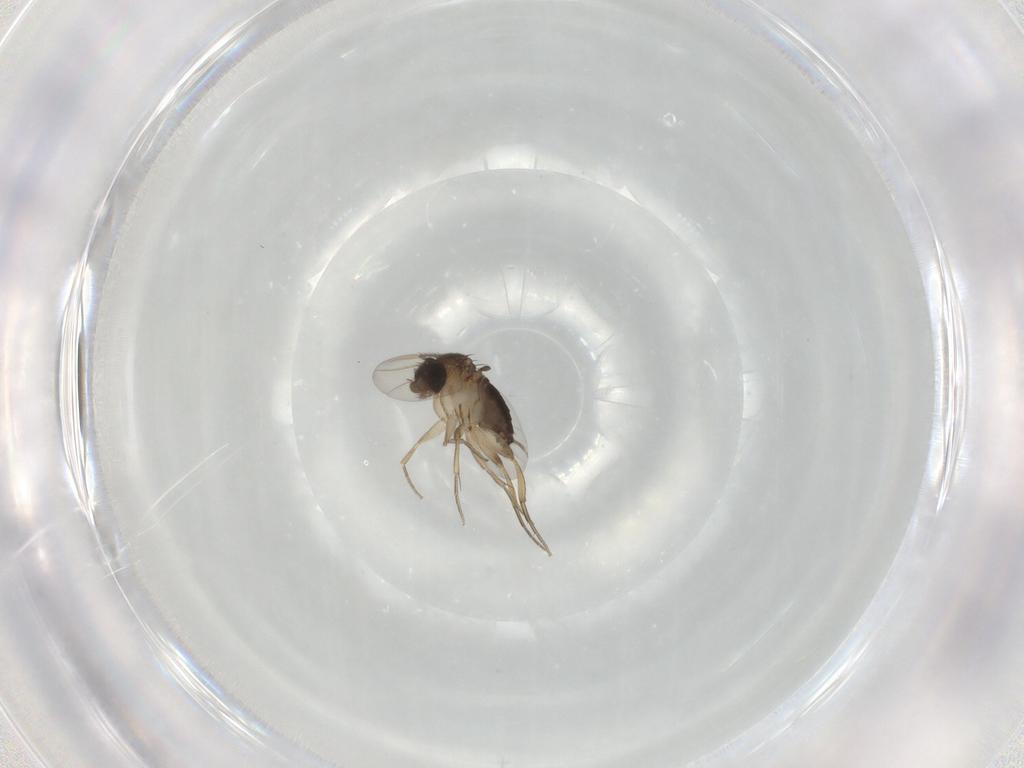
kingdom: Animalia
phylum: Arthropoda
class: Insecta
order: Diptera
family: Phoridae
